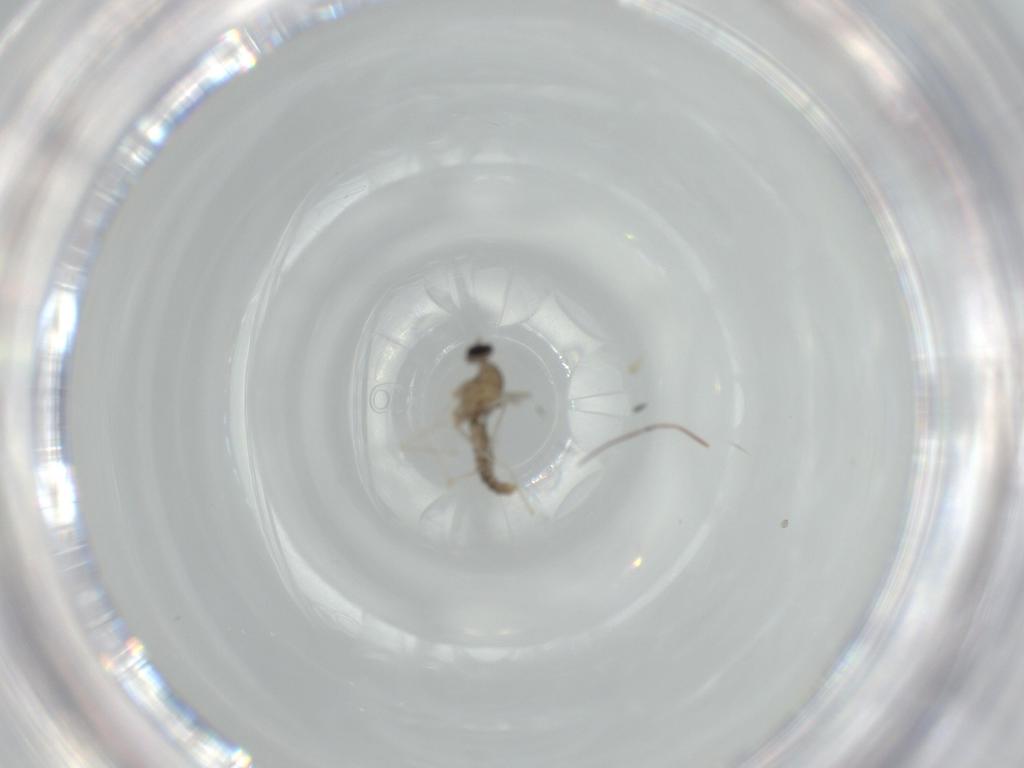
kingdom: Animalia
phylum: Arthropoda
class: Insecta
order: Diptera
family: Cecidomyiidae
